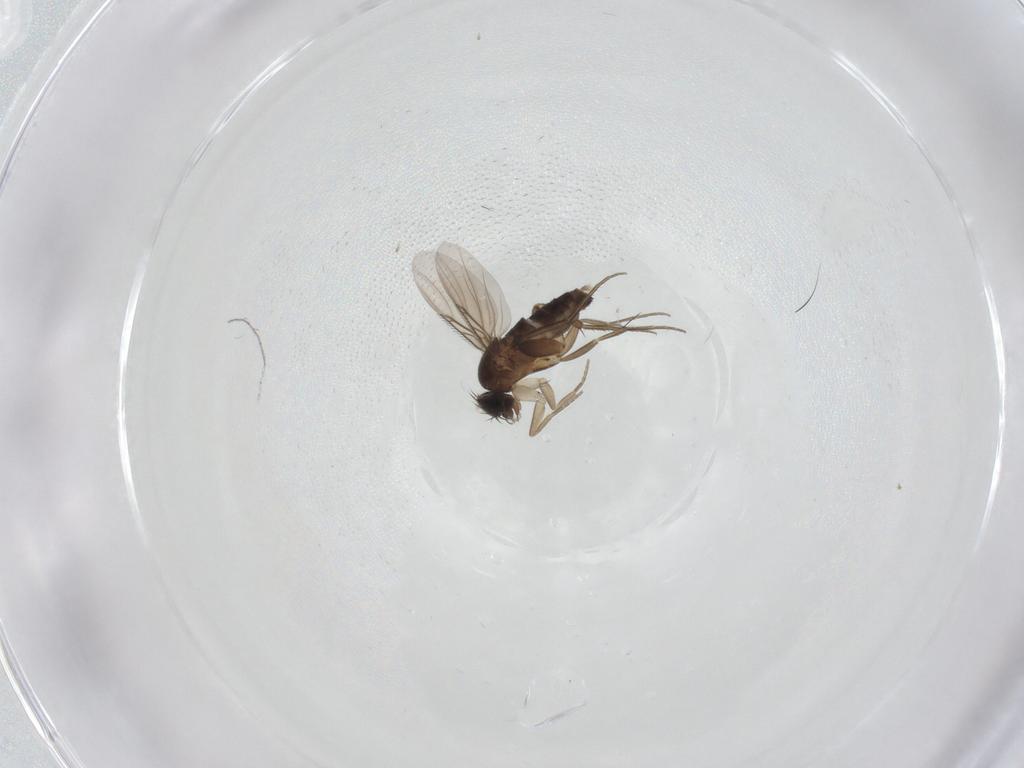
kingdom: Animalia
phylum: Arthropoda
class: Insecta
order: Diptera
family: Phoridae
